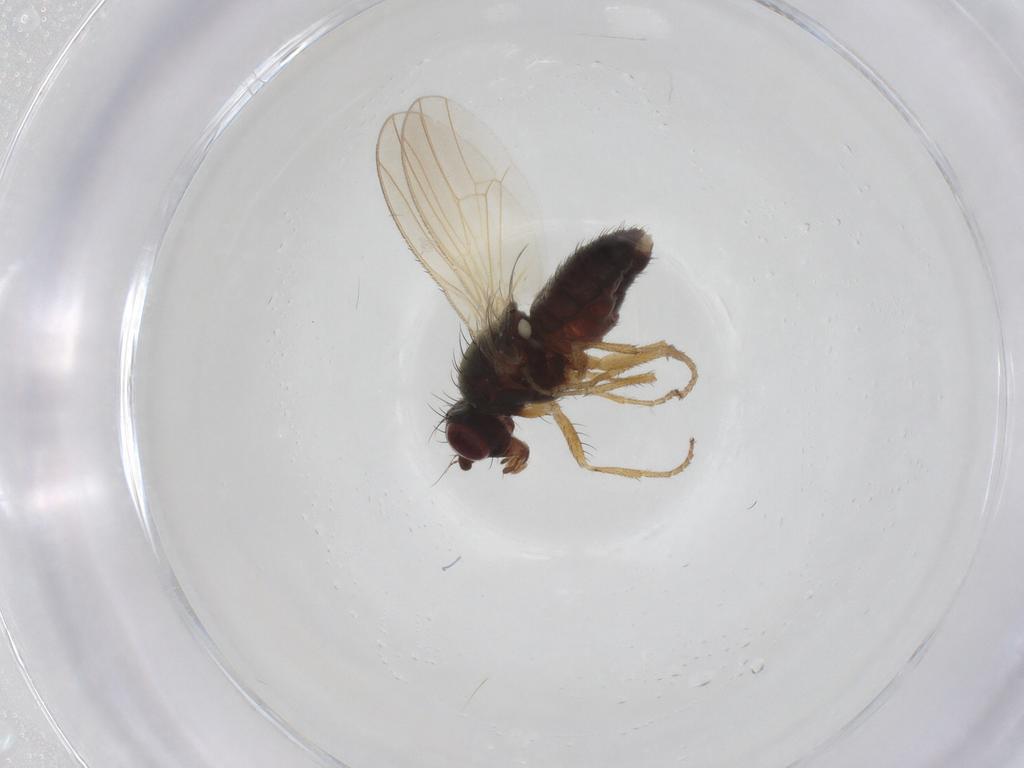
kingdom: Animalia
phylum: Arthropoda
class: Insecta
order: Diptera
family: Heleomyzidae
